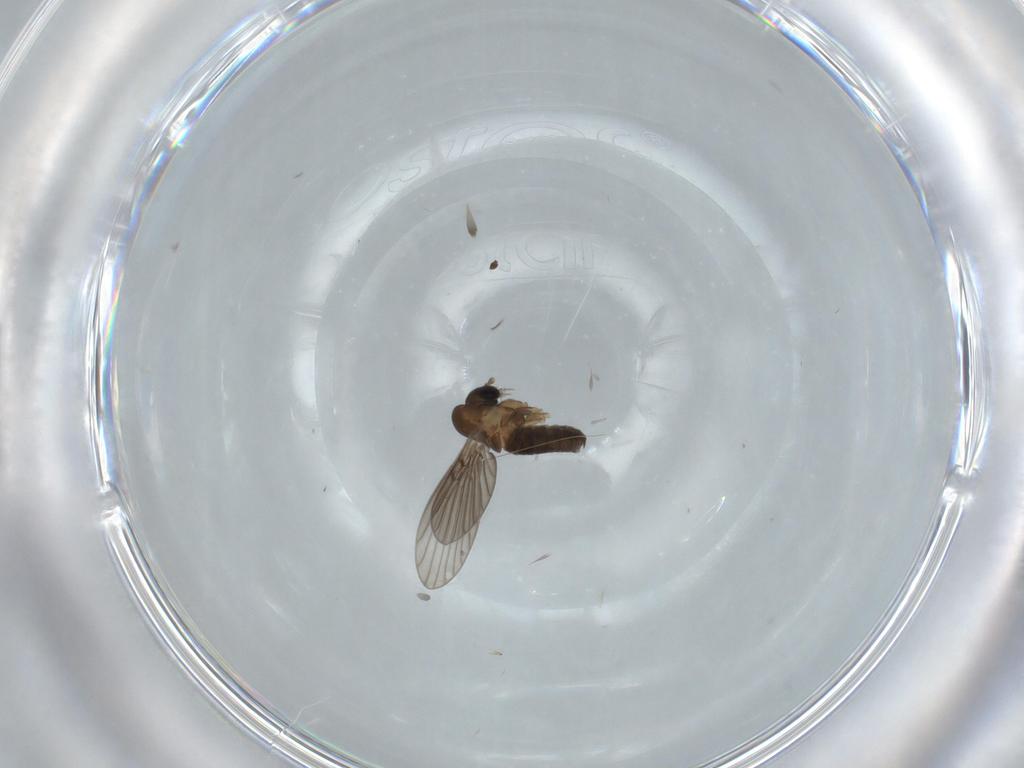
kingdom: Animalia
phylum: Arthropoda
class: Insecta
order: Diptera
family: Psychodidae
